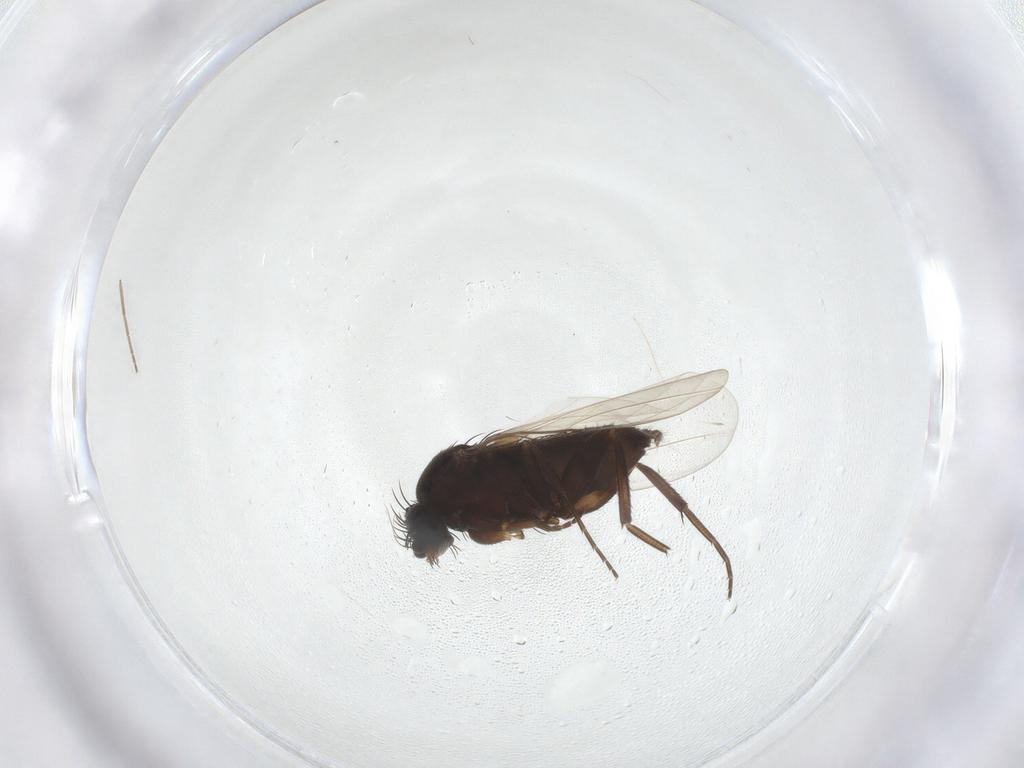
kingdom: Animalia
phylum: Arthropoda
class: Insecta
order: Diptera
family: Phoridae
